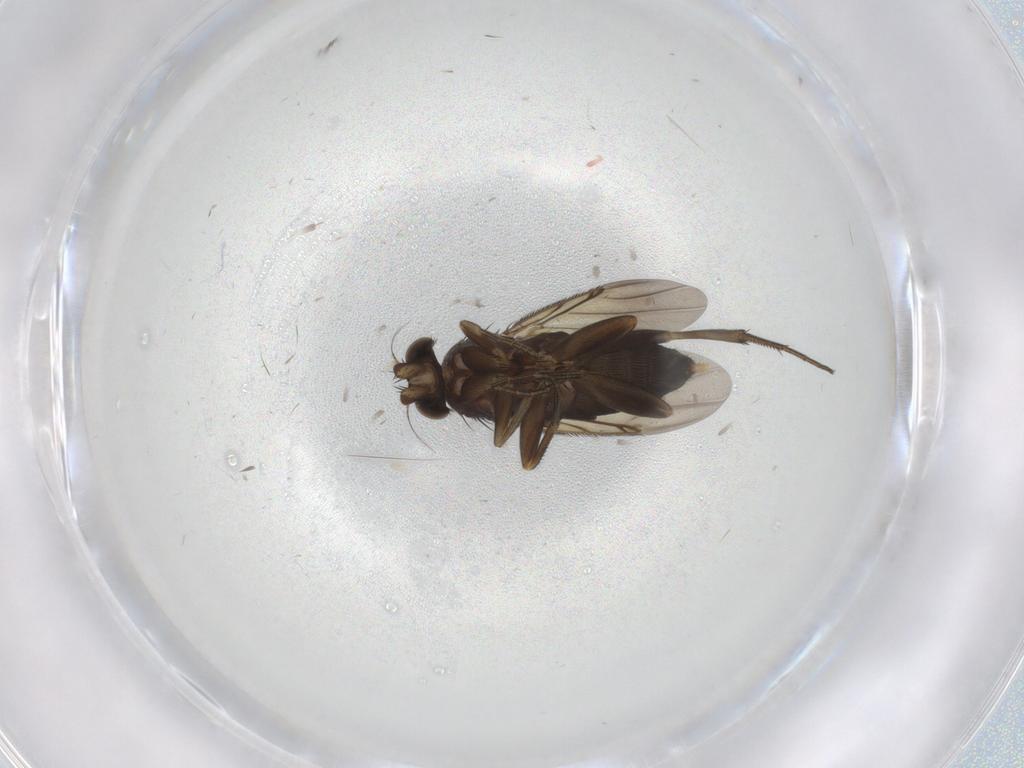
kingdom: Animalia
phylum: Arthropoda
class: Insecta
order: Diptera
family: Phoridae
